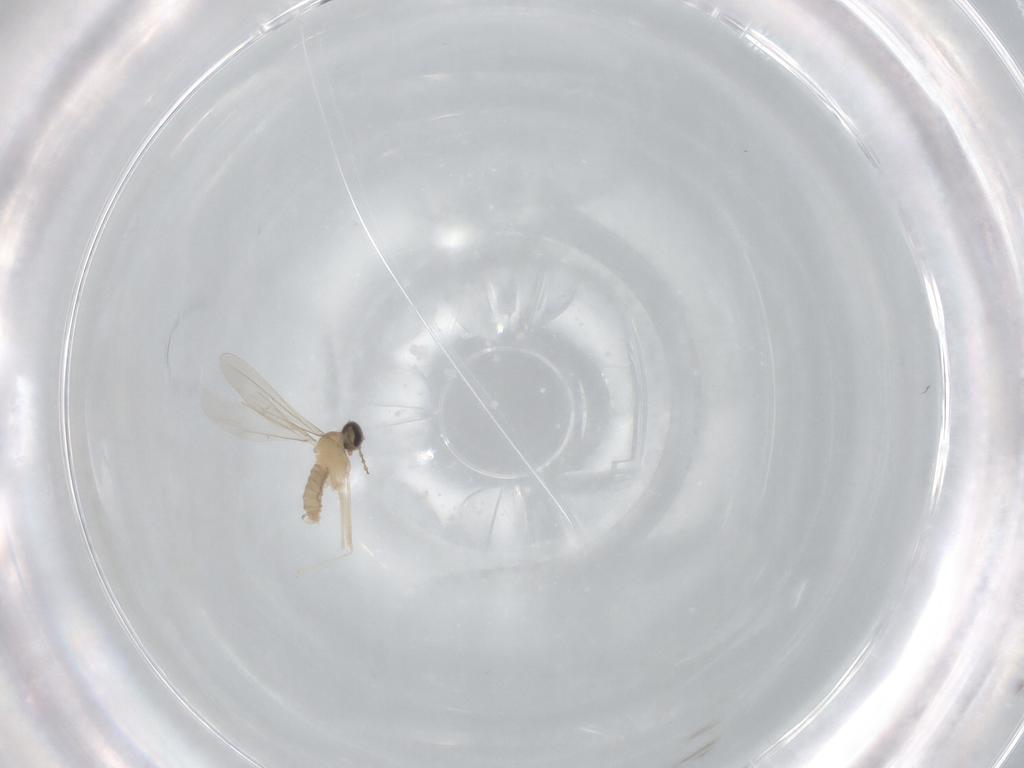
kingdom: Animalia
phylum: Arthropoda
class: Insecta
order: Diptera
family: Cecidomyiidae
